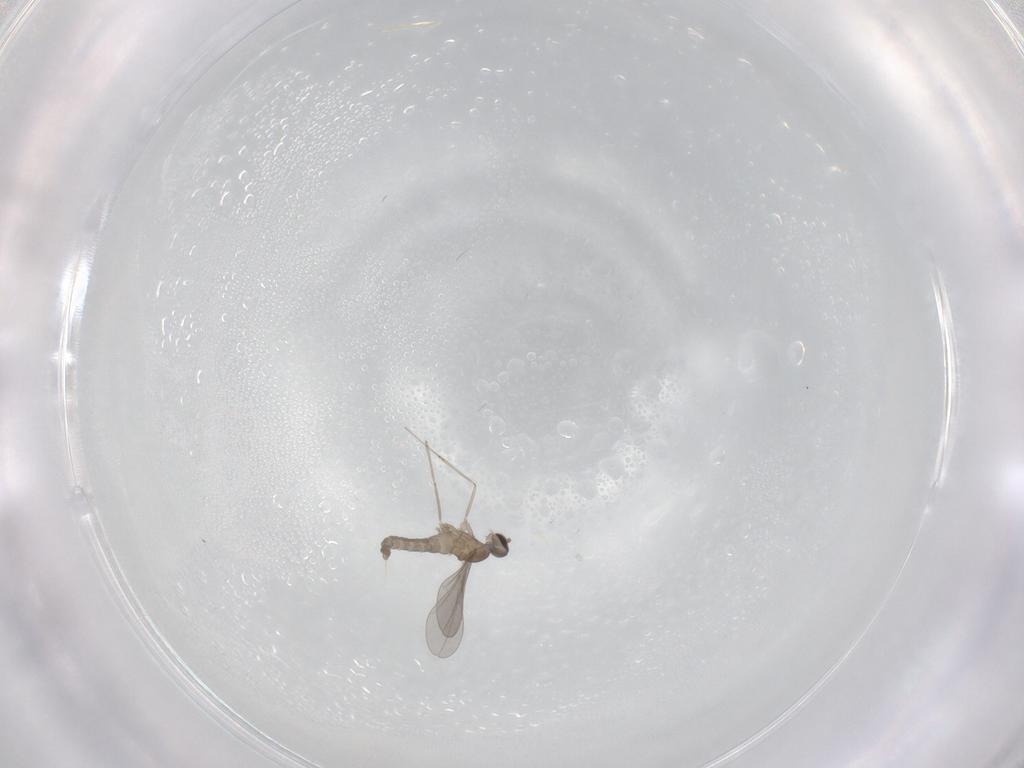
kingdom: Animalia
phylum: Arthropoda
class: Insecta
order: Diptera
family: Cecidomyiidae
